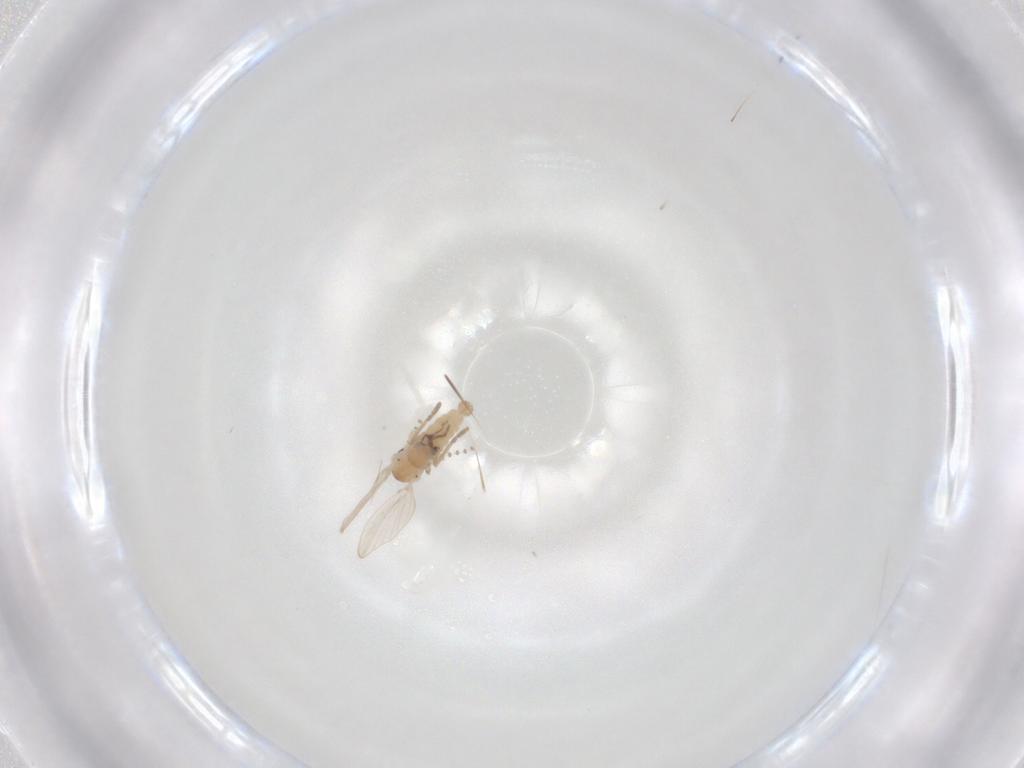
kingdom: Animalia
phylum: Arthropoda
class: Insecta
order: Diptera
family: Psychodidae
